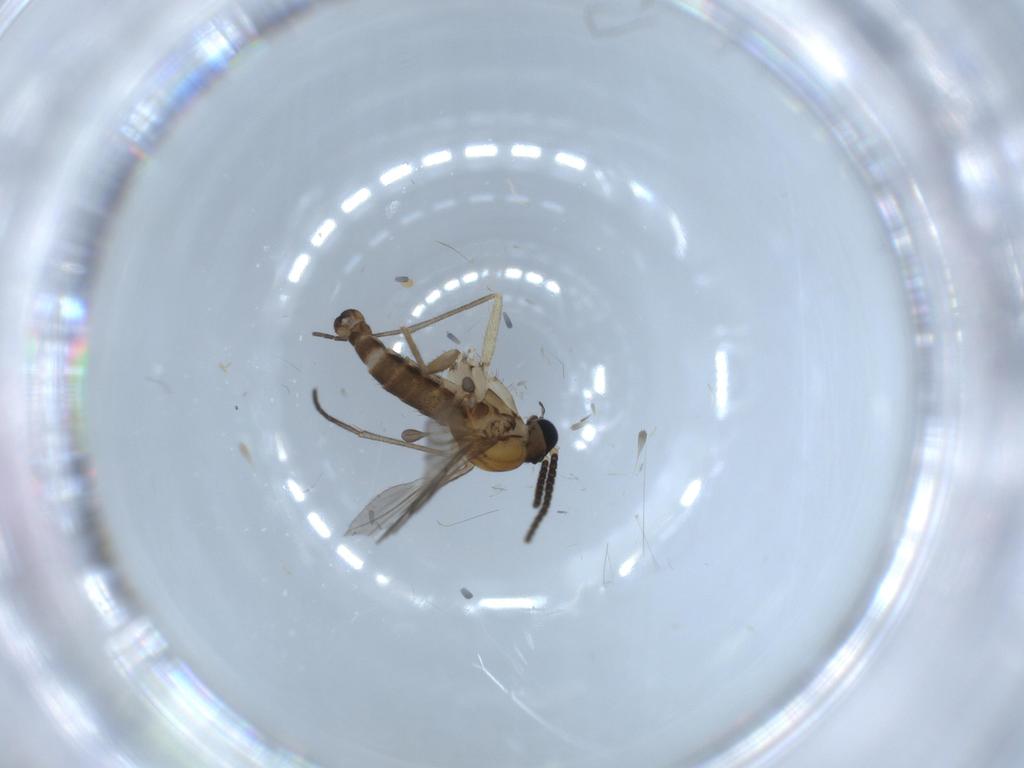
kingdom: Animalia
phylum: Arthropoda
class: Insecta
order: Diptera
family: Sciaridae
